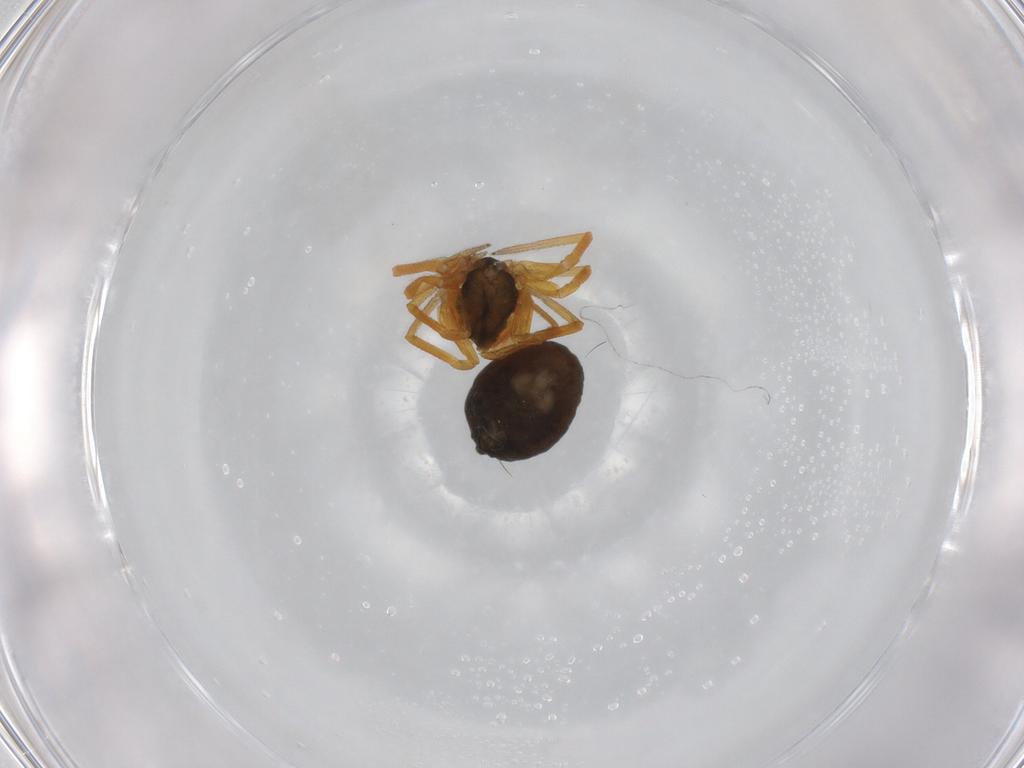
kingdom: Animalia
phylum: Arthropoda
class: Arachnida
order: Araneae
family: Linyphiidae
